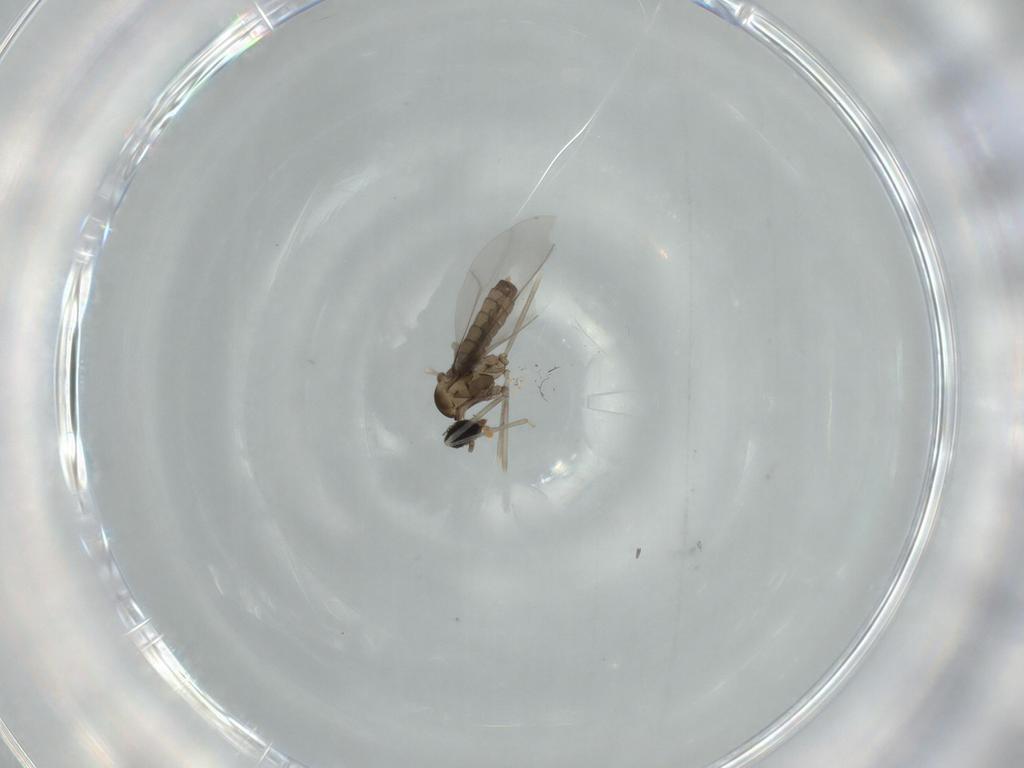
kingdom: Animalia
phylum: Arthropoda
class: Insecta
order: Diptera
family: Cecidomyiidae
